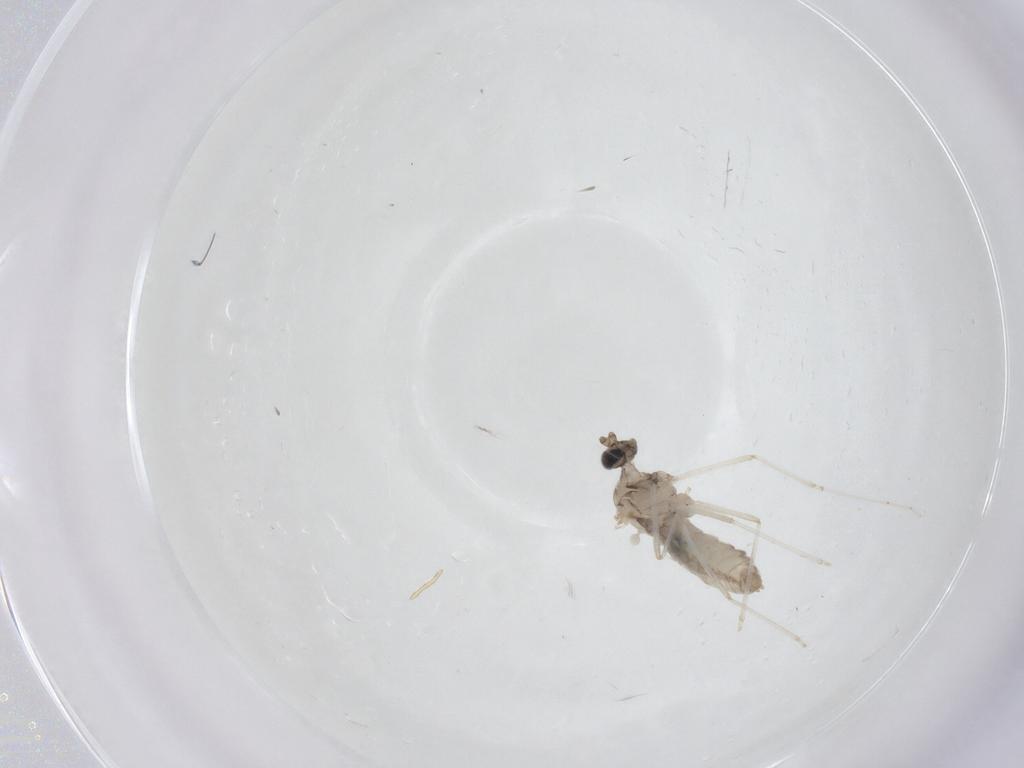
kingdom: Animalia
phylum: Arthropoda
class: Insecta
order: Diptera
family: Cecidomyiidae
